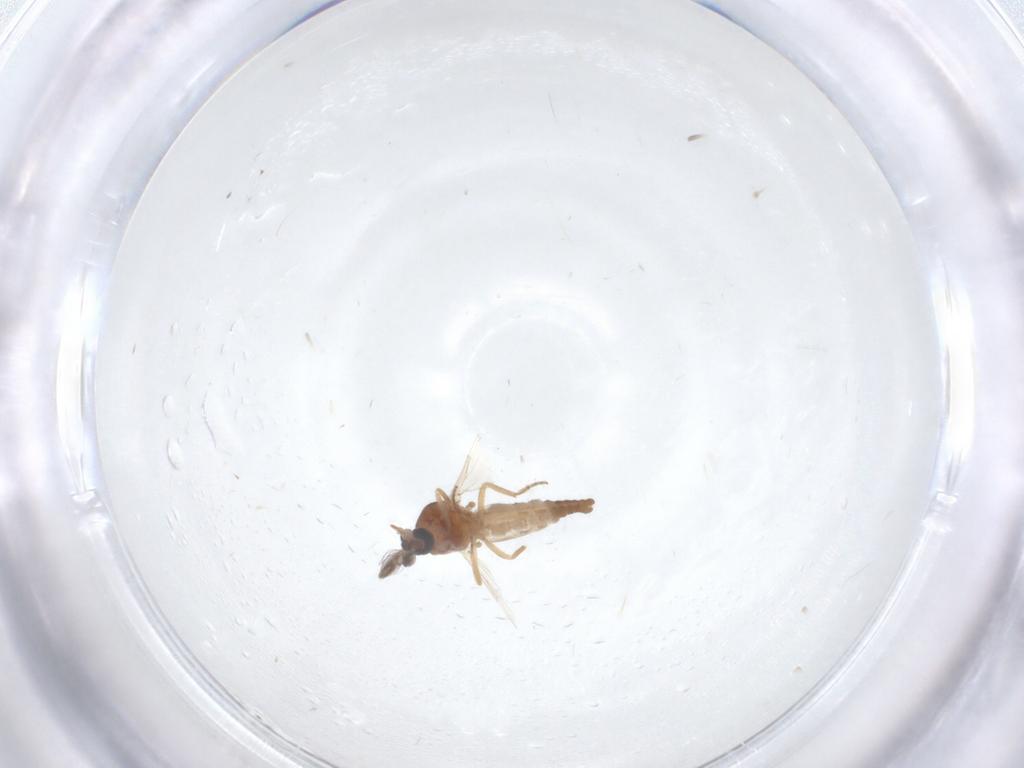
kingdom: Animalia
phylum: Arthropoda
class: Insecta
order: Diptera
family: Ceratopogonidae
